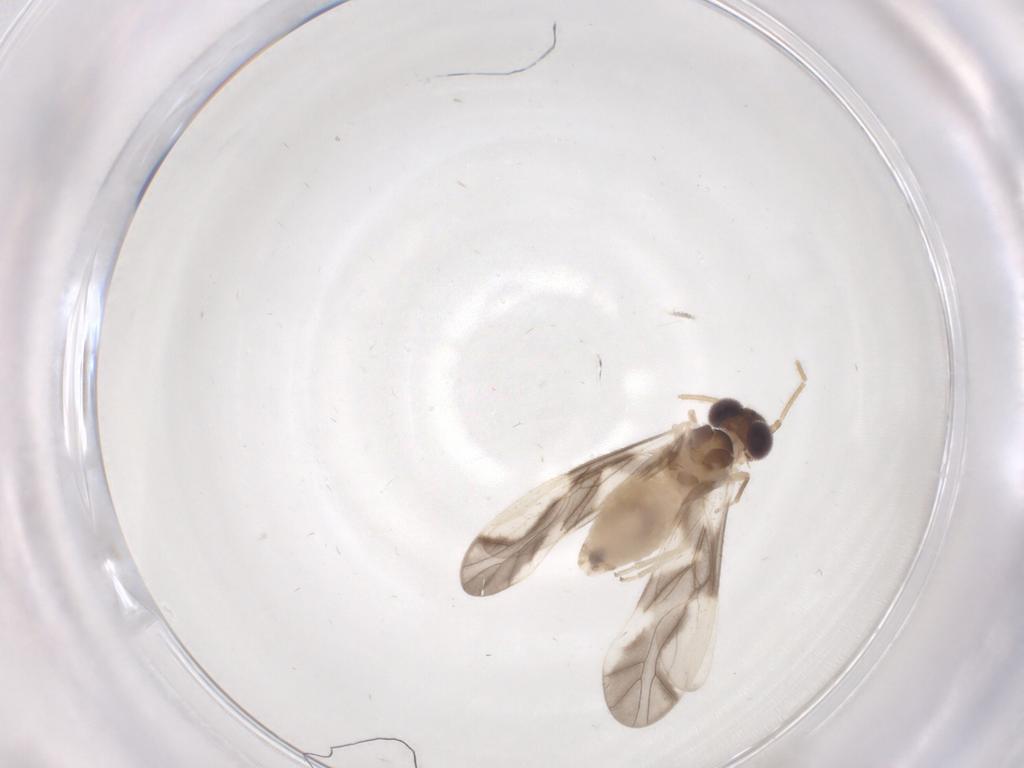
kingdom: Animalia
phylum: Arthropoda
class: Insecta
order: Psocodea
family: Caeciliusidae
